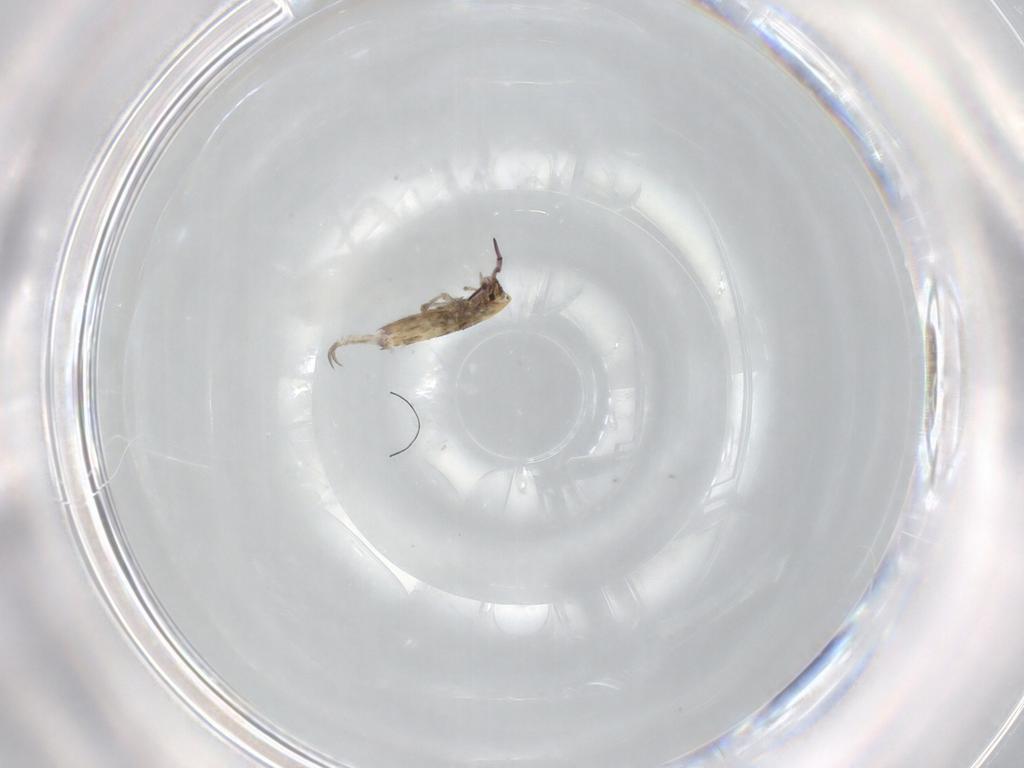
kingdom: Animalia
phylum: Arthropoda
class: Collembola
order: Entomobryomorpha
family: Entomobryidae
